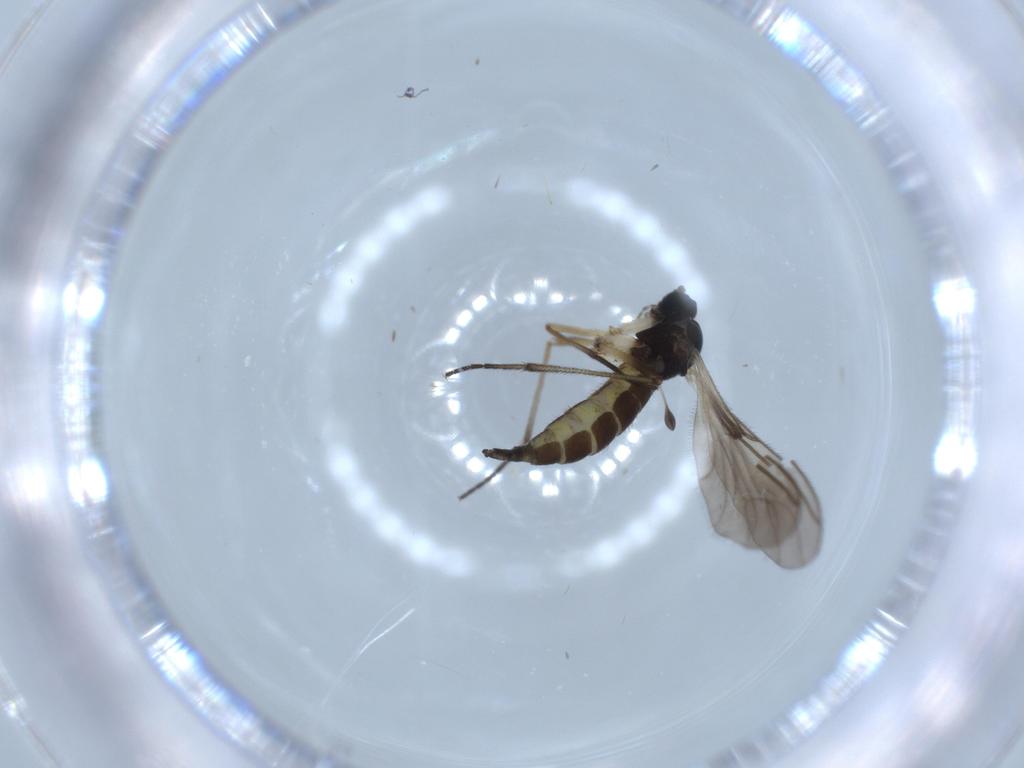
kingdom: Animalia
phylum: Arthropoda
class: Insecta
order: Diptera
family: Sciaridae
